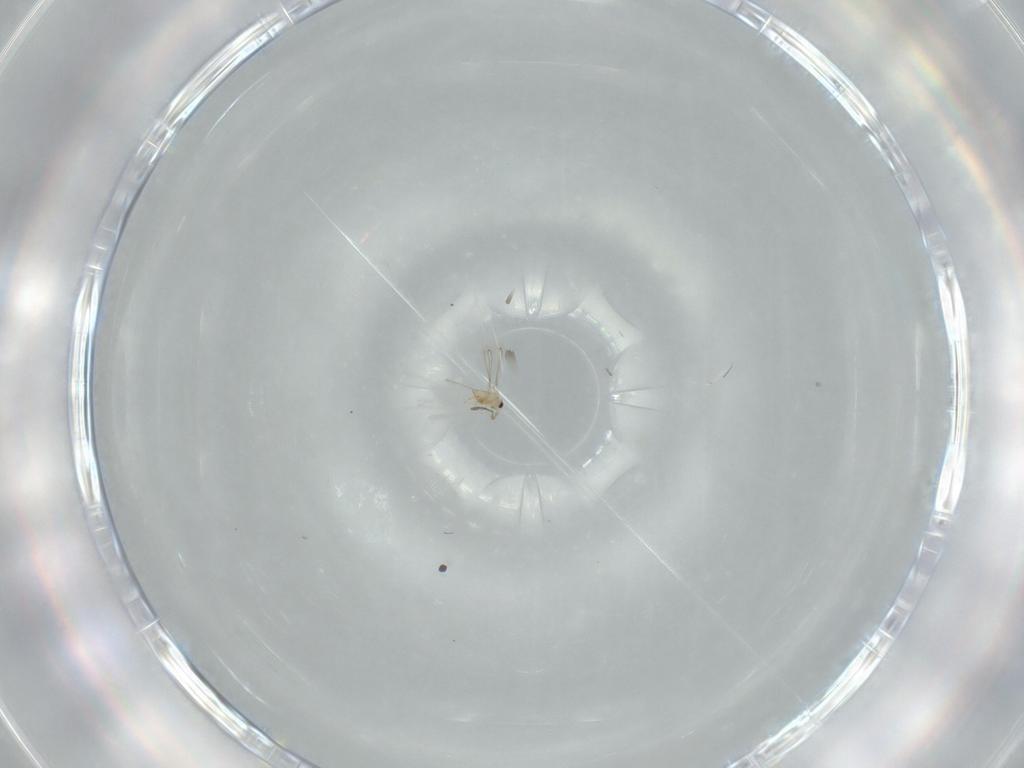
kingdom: Animalia
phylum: Arthropoda
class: Insecta
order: Hymenoptera
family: Mymaridae
